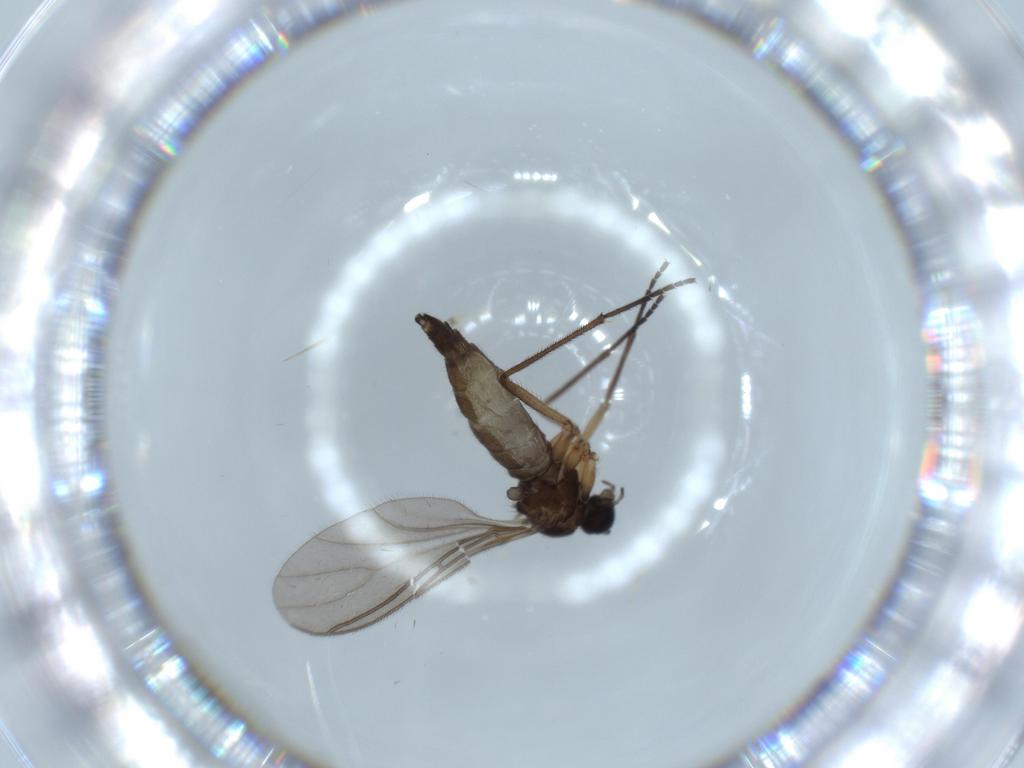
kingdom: Animalia
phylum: Arthropoda
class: Insecta
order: Diptera
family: Sciaridae
